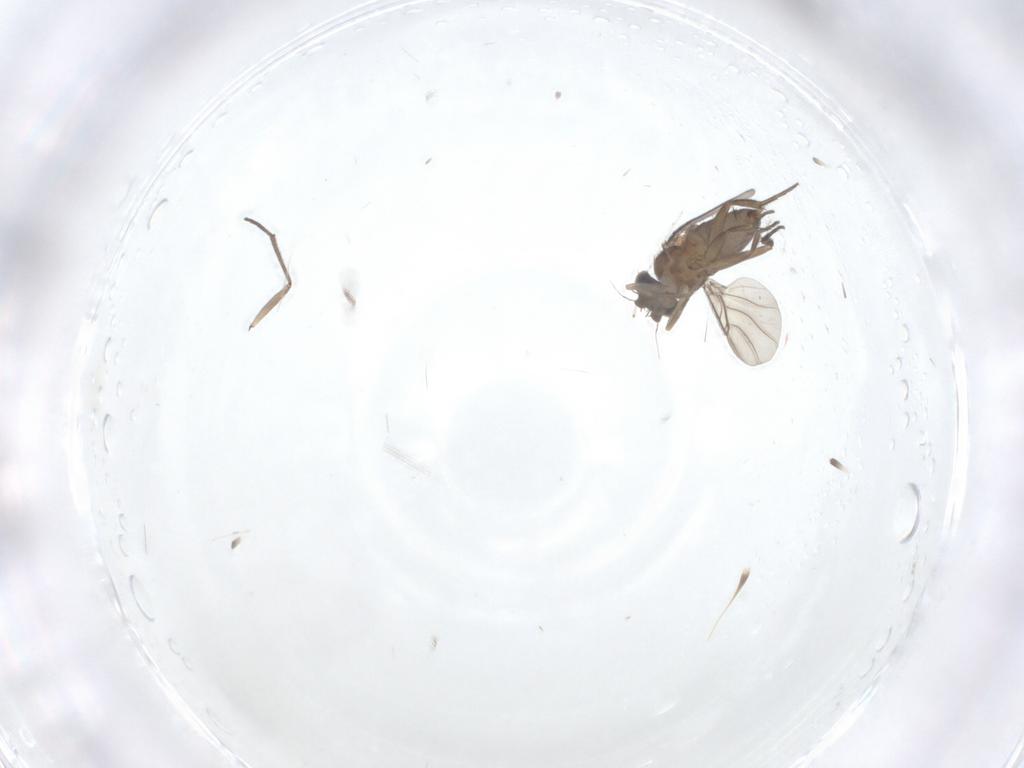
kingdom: Animalia
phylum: Arthropoda
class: Insecta
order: Diptera
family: Phoridae
